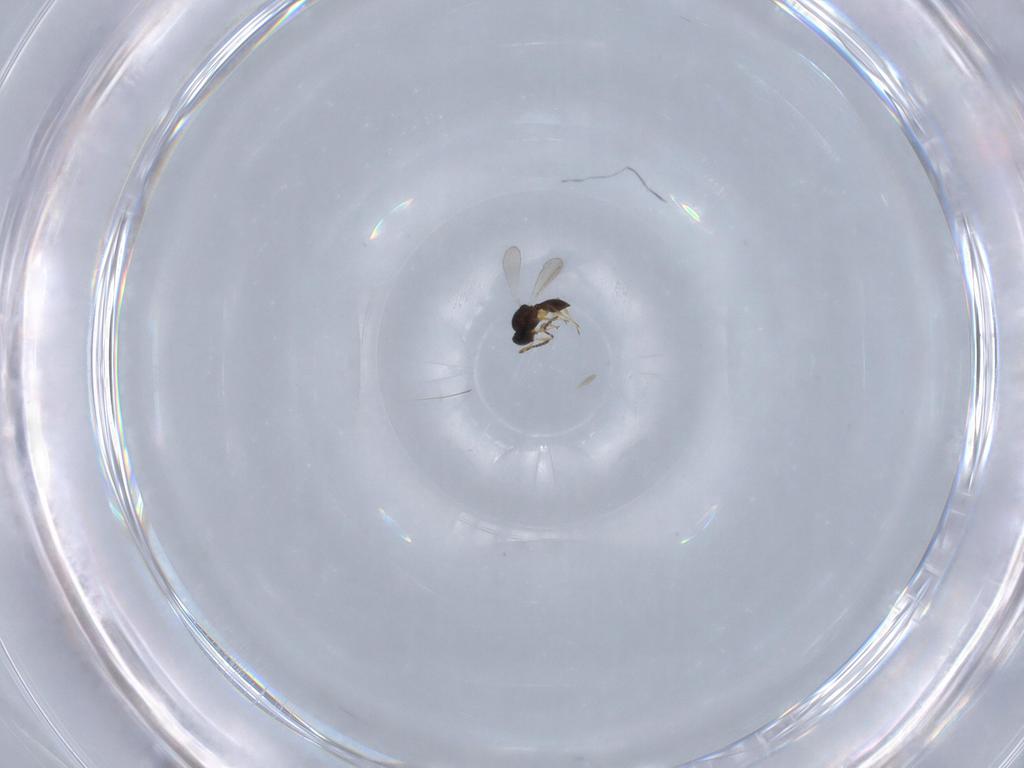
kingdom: Animalia
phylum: Arthropoda
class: Insecta
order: Hymenoptera
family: Platygastridae
